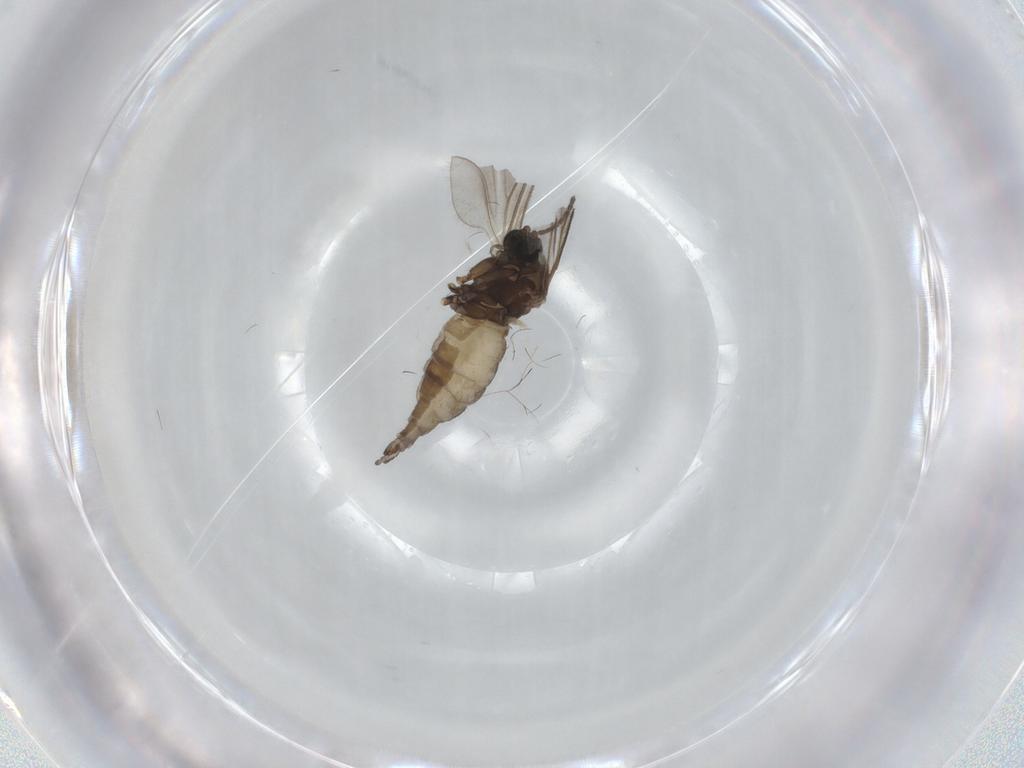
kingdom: Animalia
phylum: Arthropoda
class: Insecta
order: Diptera
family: Sciaridae
